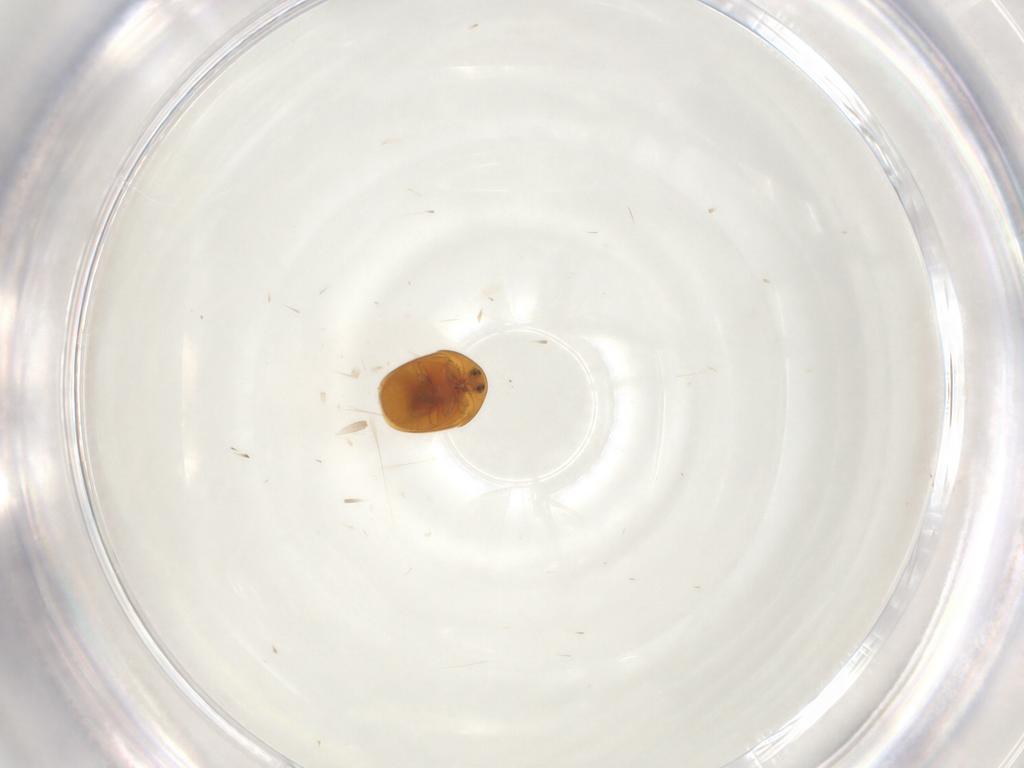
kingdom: Animalia
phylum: Arthropoda
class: Insecta
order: Coleoptera
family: Corylophidae
